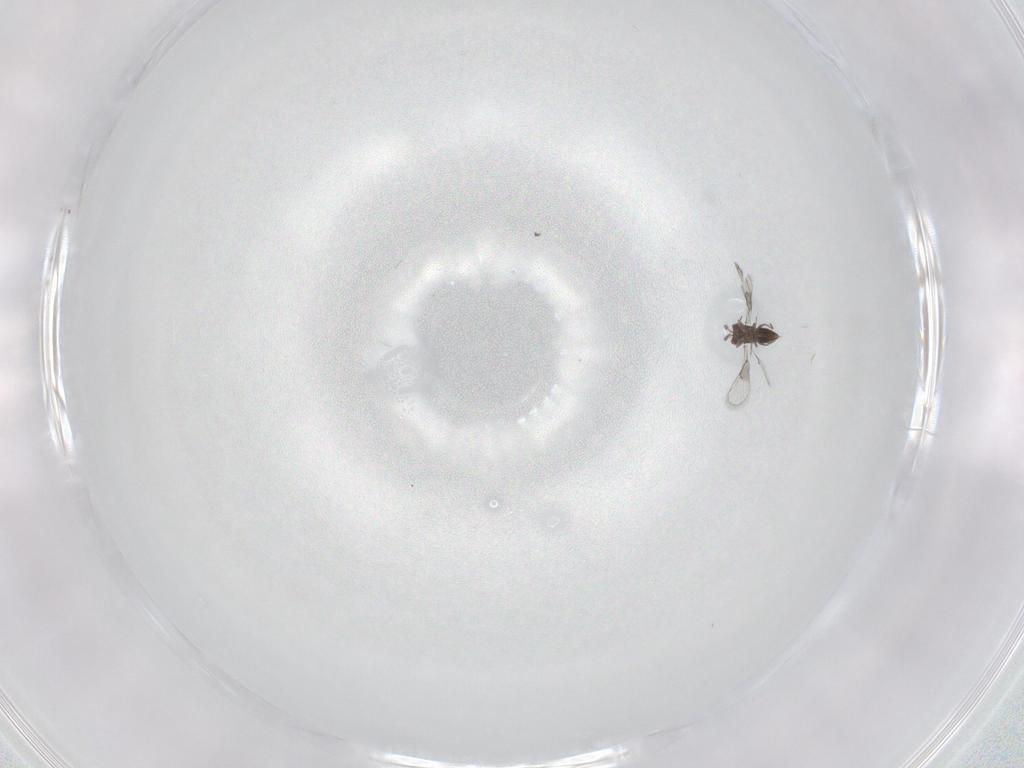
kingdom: Animalia
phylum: Arthropoda
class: Insecta
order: Hymenoptera
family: Trichogrammatidae
